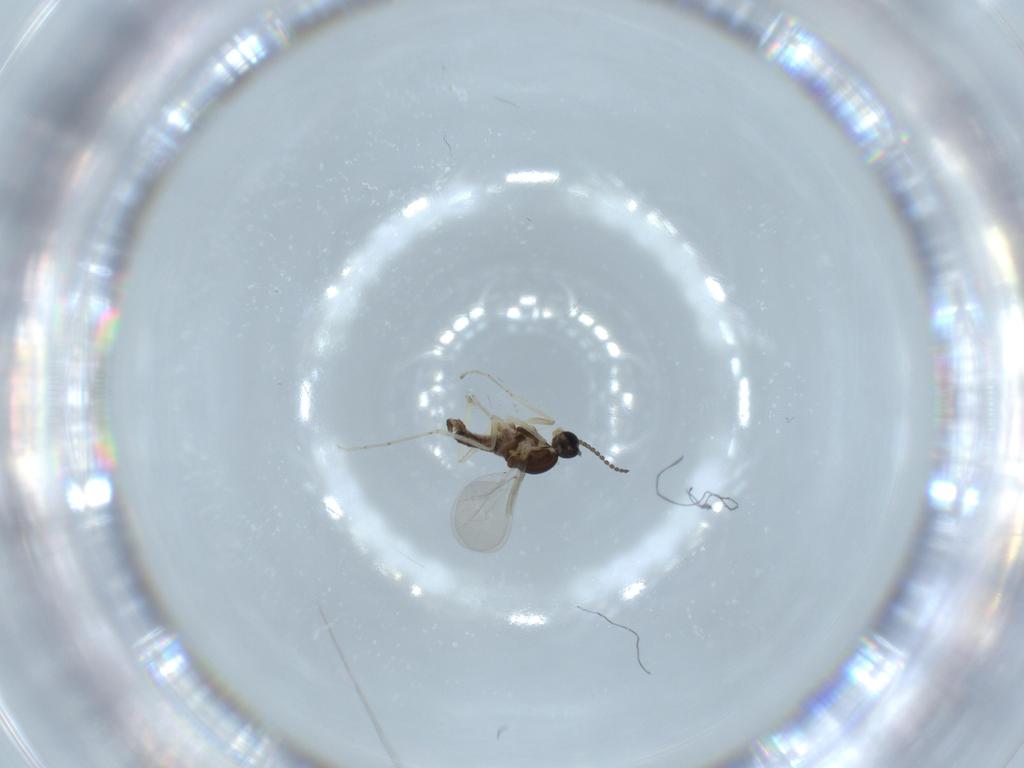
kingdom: Animalia
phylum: Arthropoda
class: Insecta
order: Diptera
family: Cecidomyiidae
